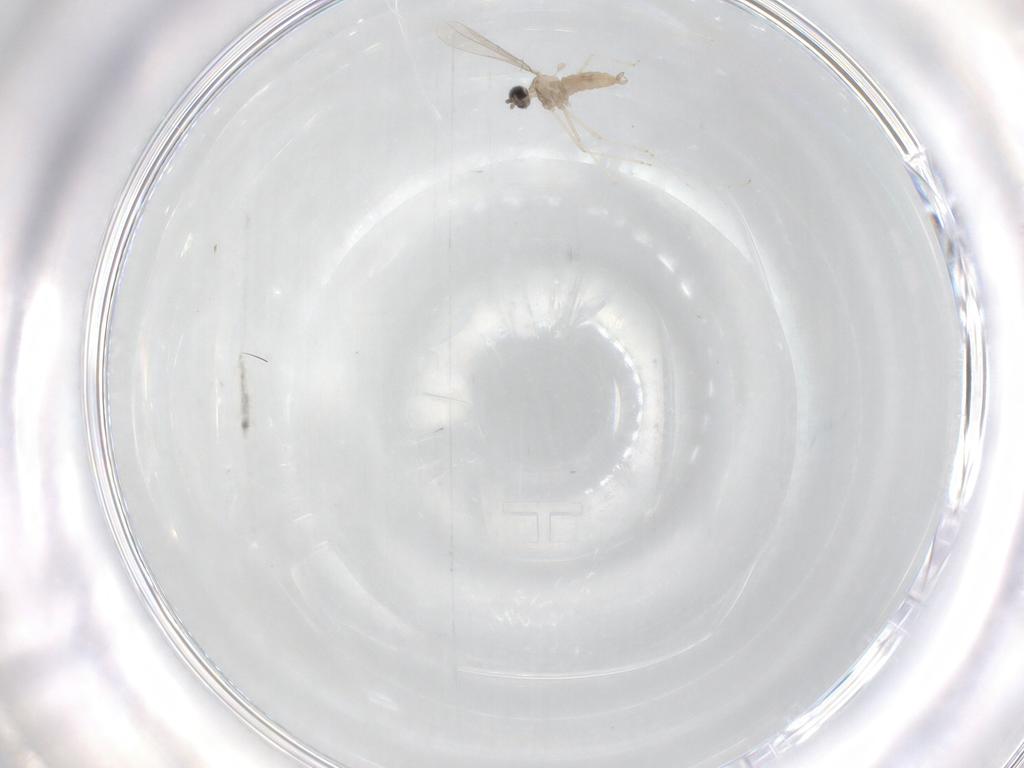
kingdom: Animalia
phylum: Arthropoda
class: Insecta
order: Diptera
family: Cecidomyiidae
